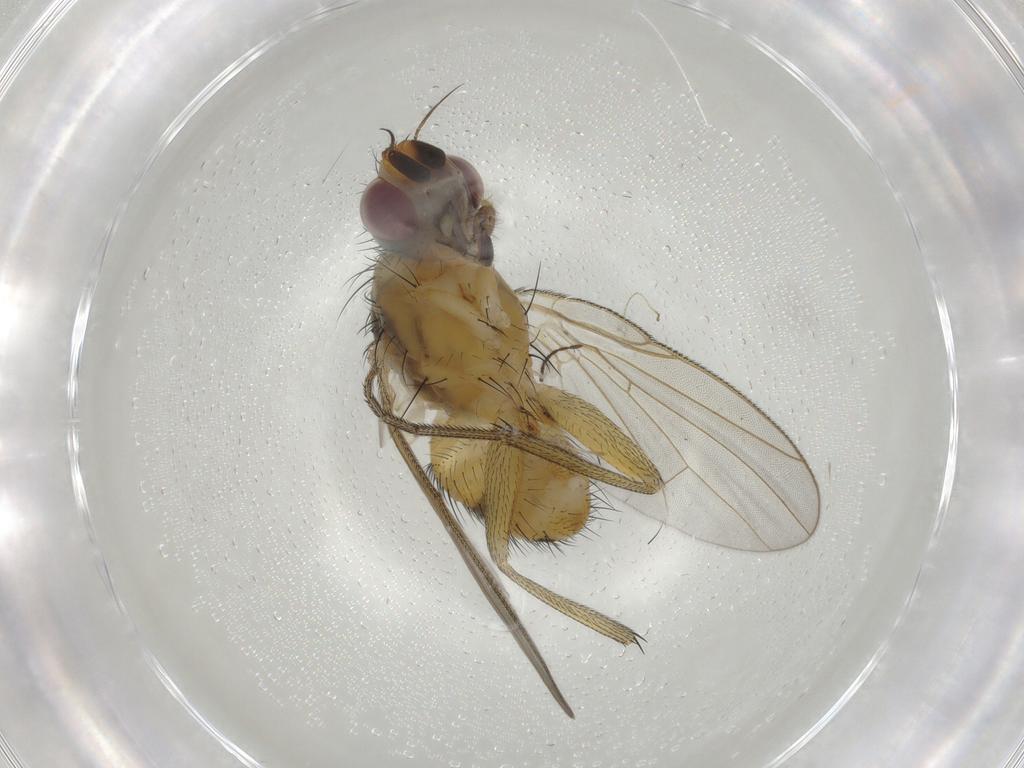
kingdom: Animalia
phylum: Arthropoda
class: Insecta
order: Diptera
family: Muscidae
